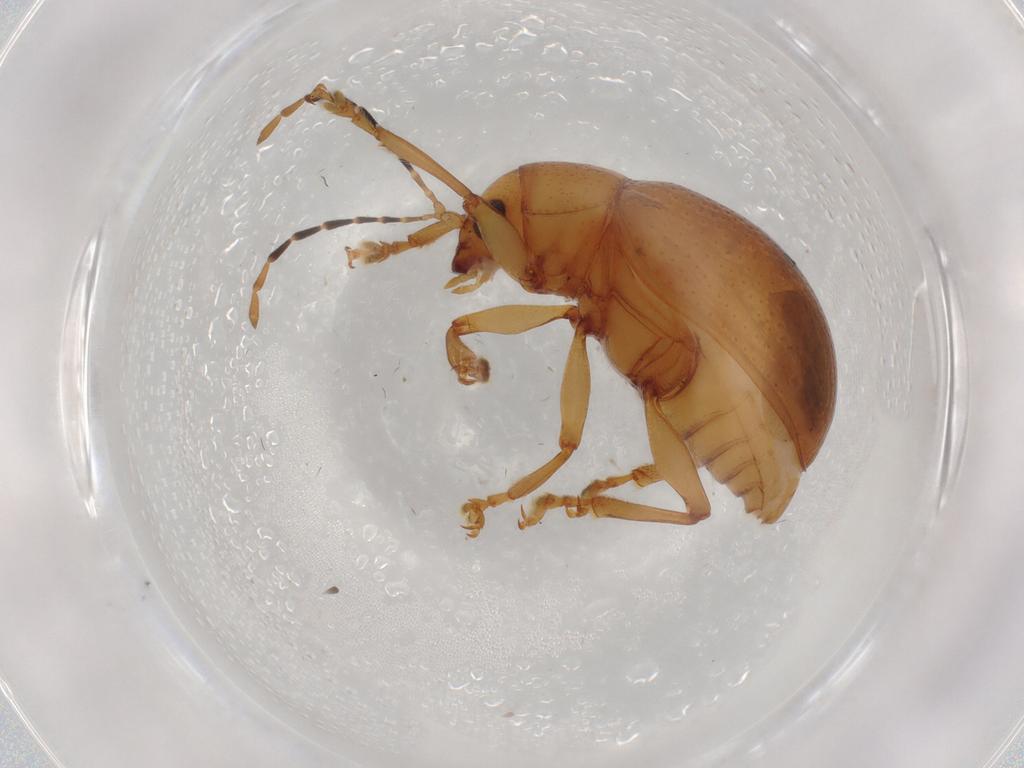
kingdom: Animalia
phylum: Arthropoda
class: Insecta
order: Coleoptera
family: Chrysomelidae
